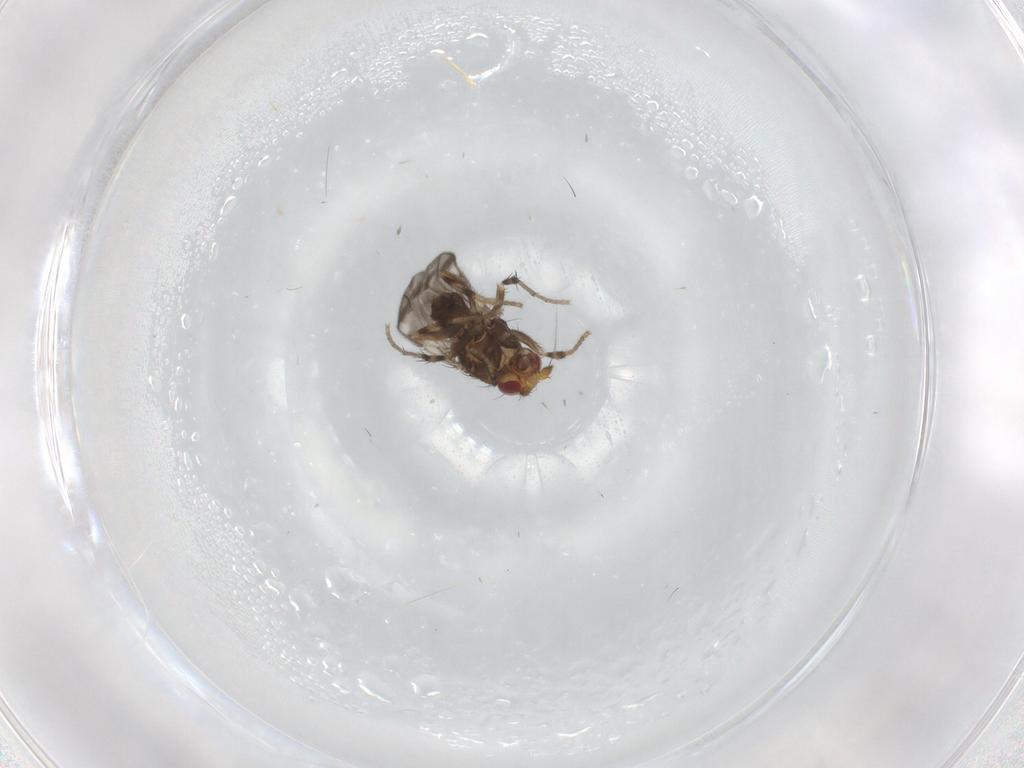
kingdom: Animalia
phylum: Arthropoda
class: Insecta
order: Diptera
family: Sphaeroceridae
